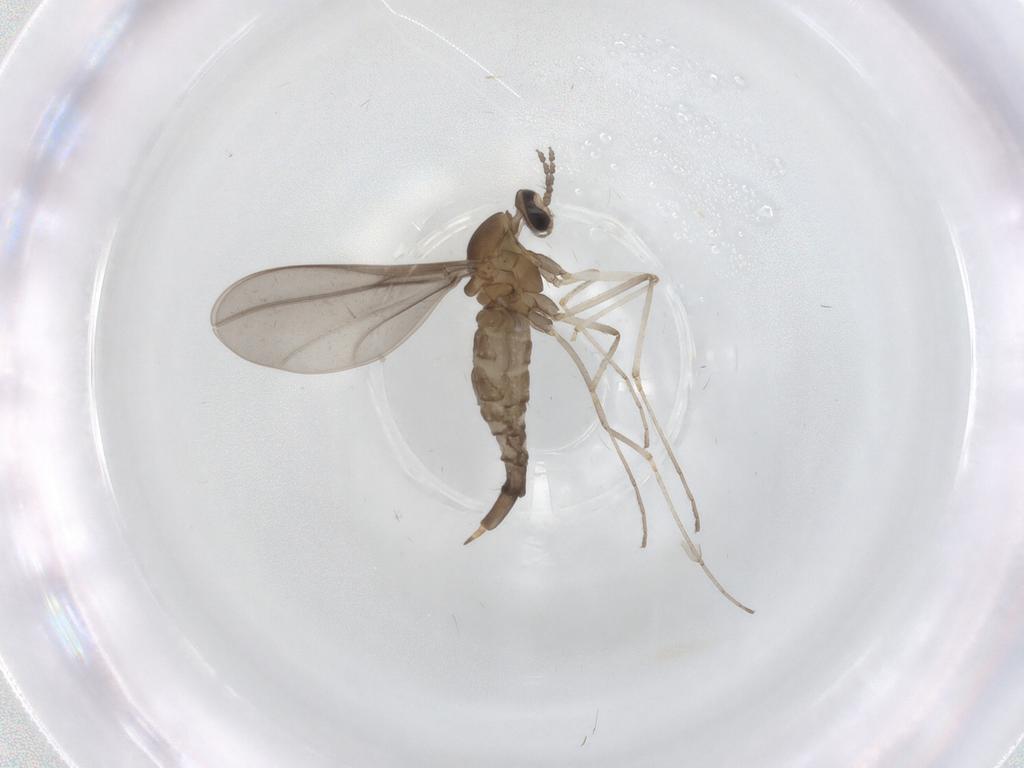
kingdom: Animalia
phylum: Arthropoda
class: Insecta
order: Diptera
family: Cecidomyiidae
